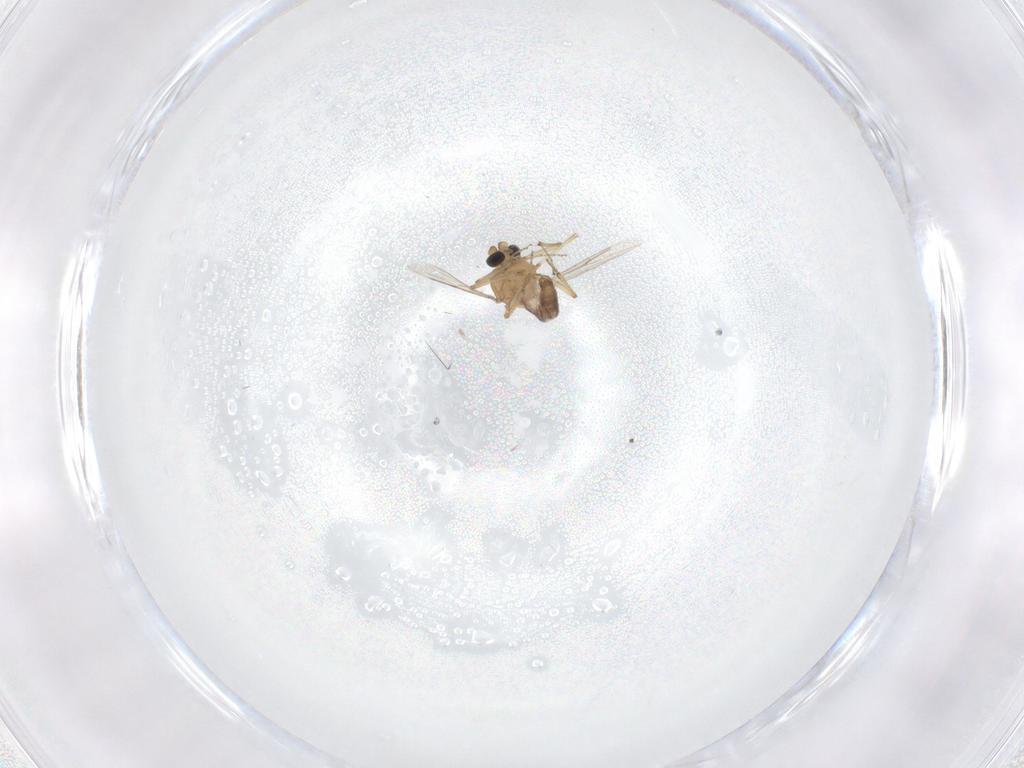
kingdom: Animalia
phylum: Arthropoda
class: Insecta
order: Diptera
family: Ceratopogonidae
